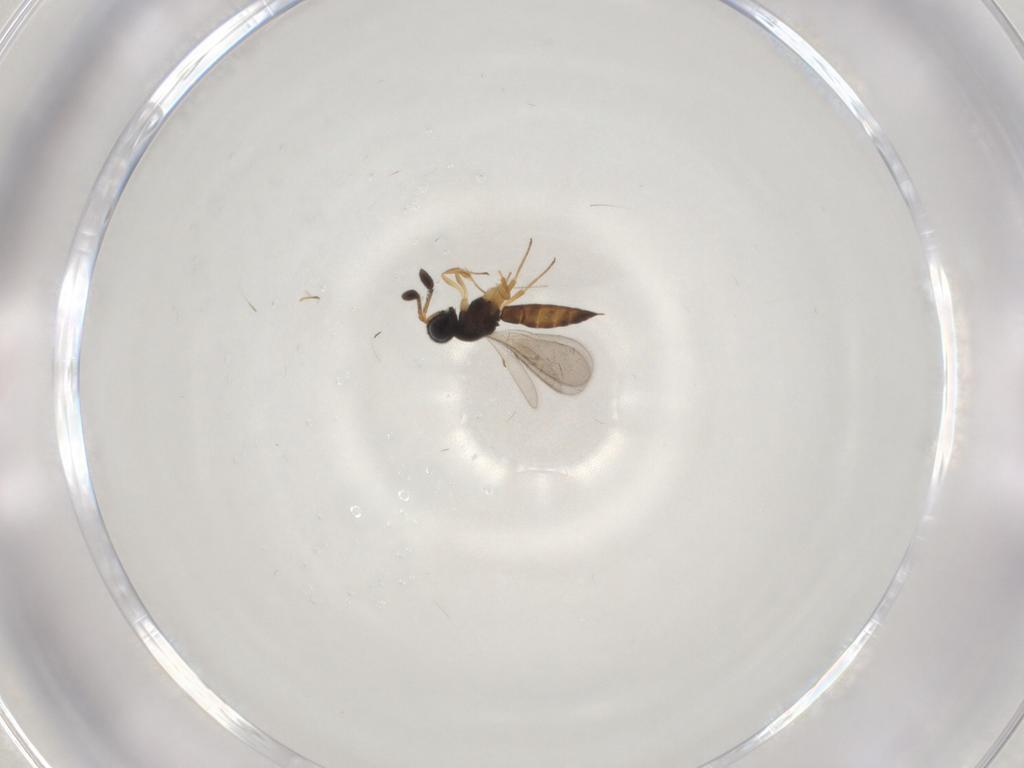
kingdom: Animalia
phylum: Arthropoda
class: Insecta
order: Hymenoptera
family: Scelionidae
